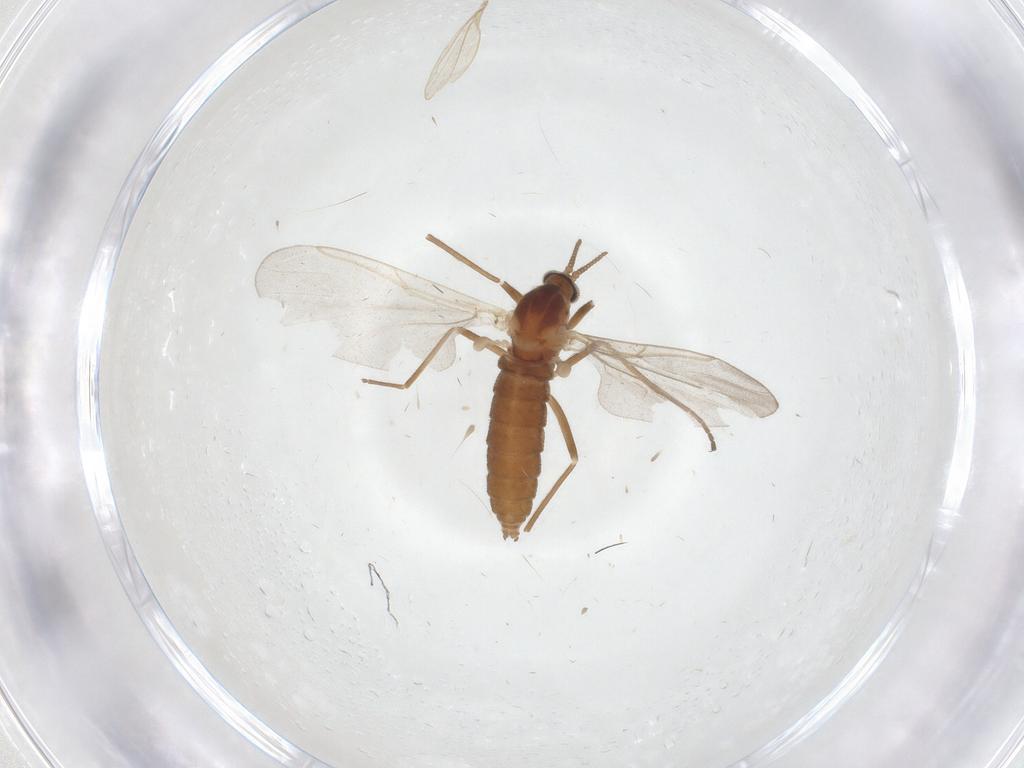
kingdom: Animalia
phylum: Arthropoda
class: Insecta
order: Diptera
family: Cecidomyiidae
